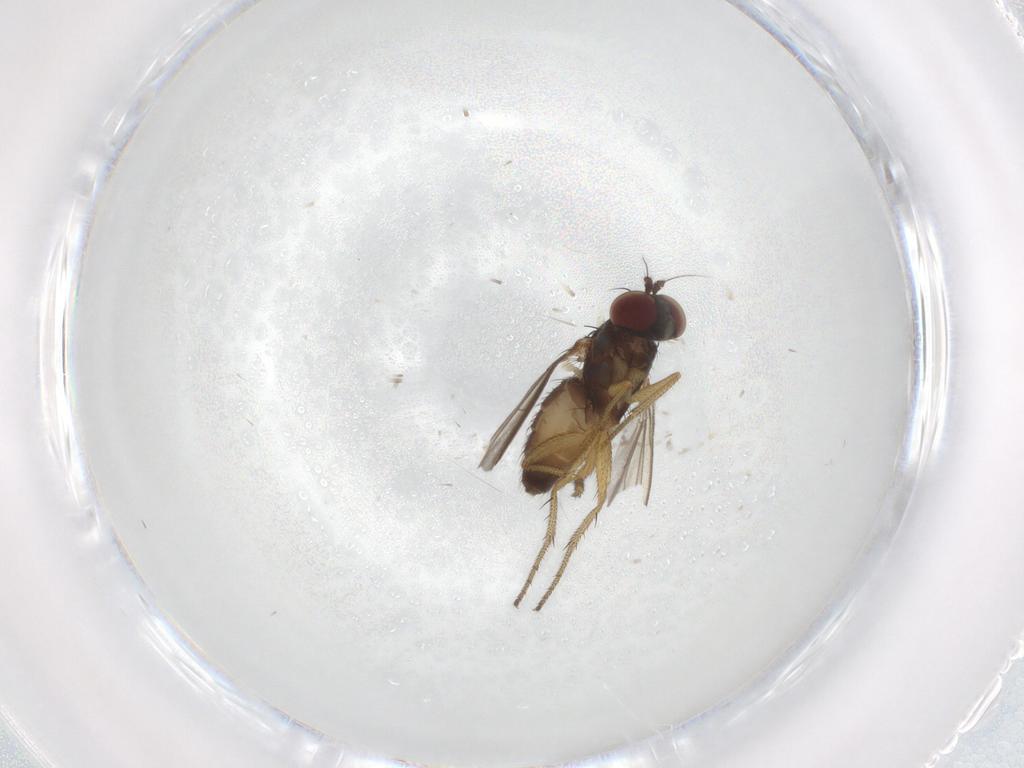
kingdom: Animalia
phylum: Arthropoda
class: Insecta
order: Diptera
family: Dolichopodidae
